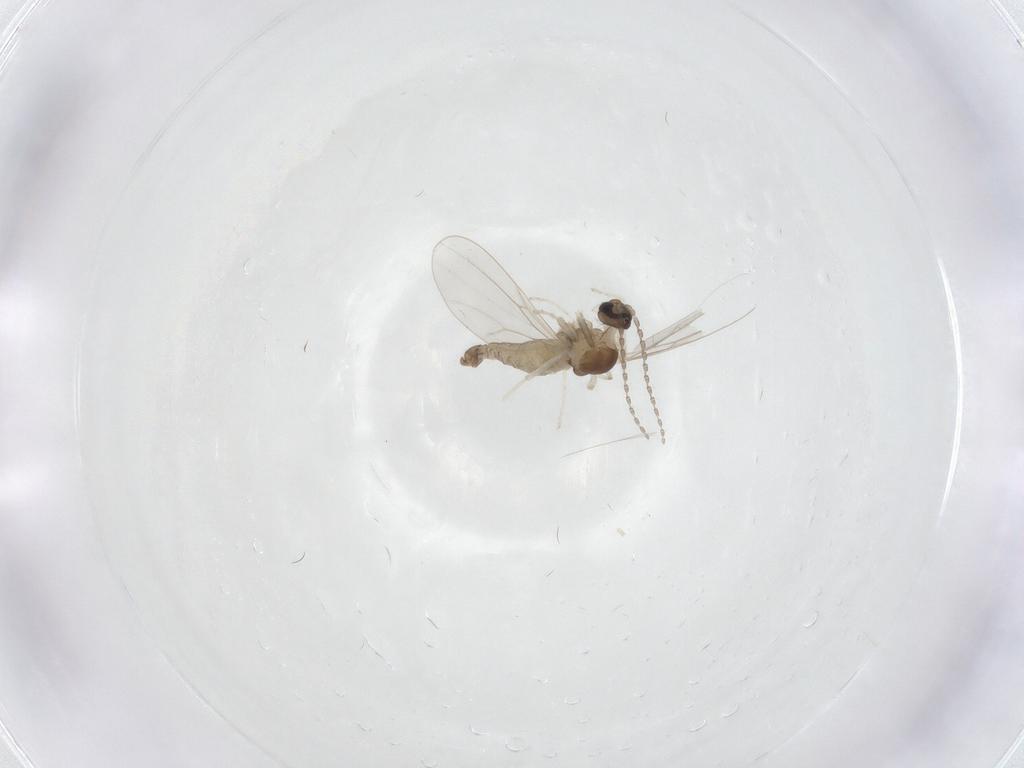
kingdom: Animalia
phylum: Arthropoda
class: Insecta
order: Diptera
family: Cecidomyiidae
